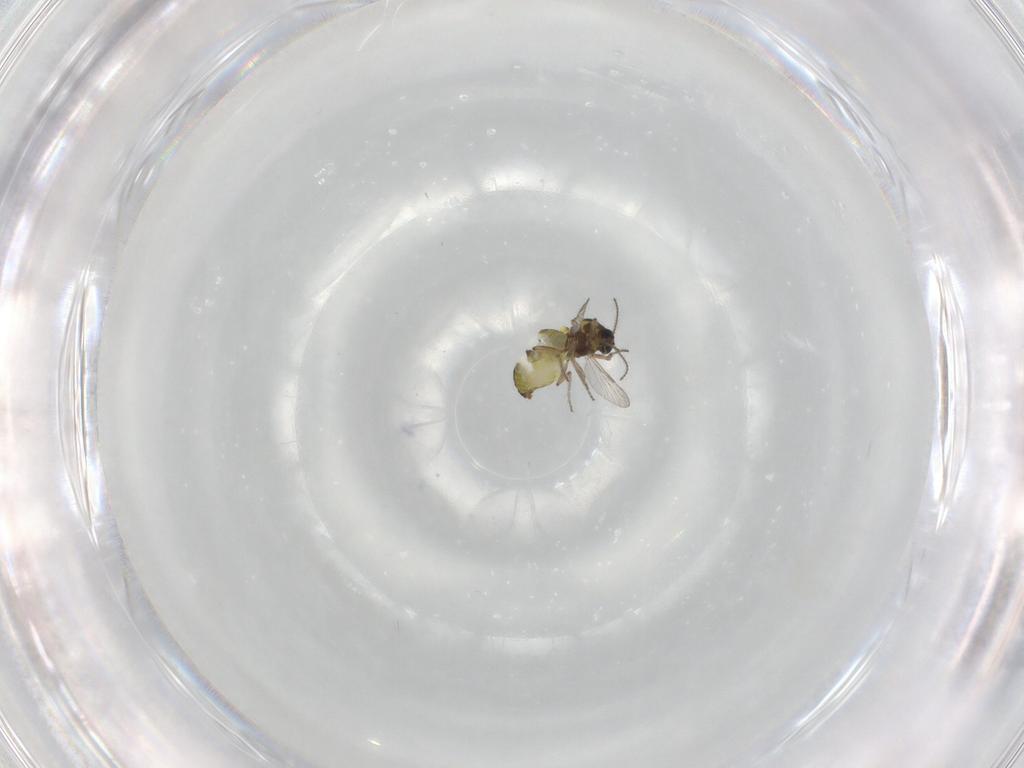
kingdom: Animalia
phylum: Arthropoda
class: Insecta
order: Diptera
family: Ceratopogonidae
